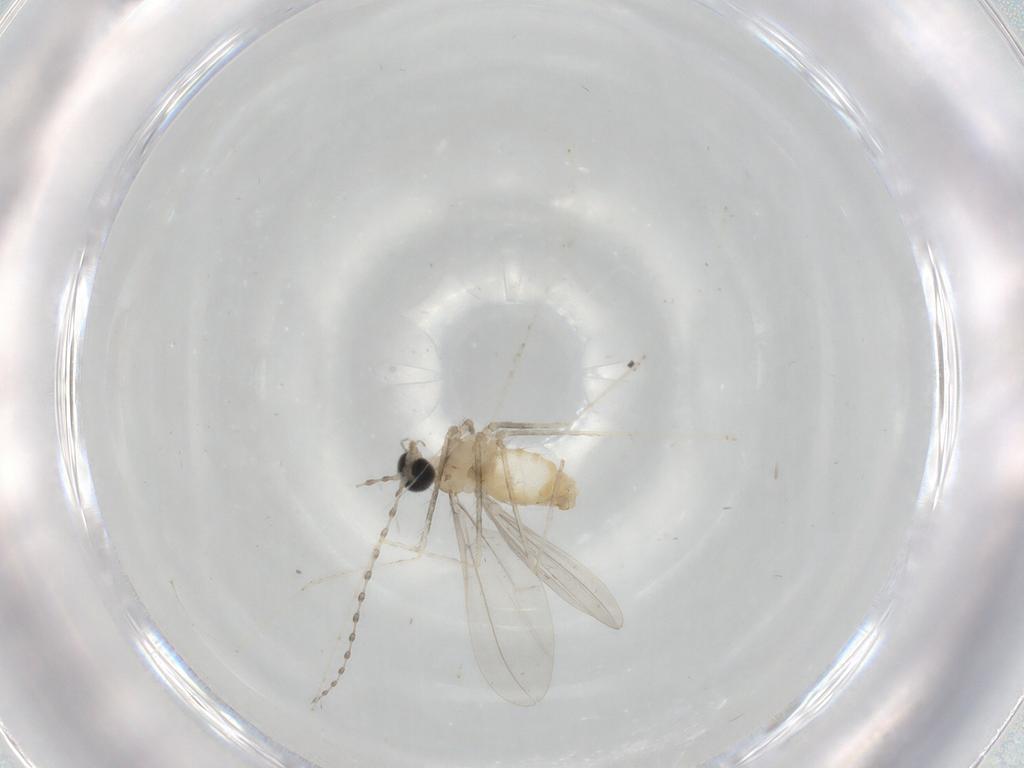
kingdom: Animalia
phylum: Arthropoda
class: Insecta
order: Diptera
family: Cecidomyiidae
